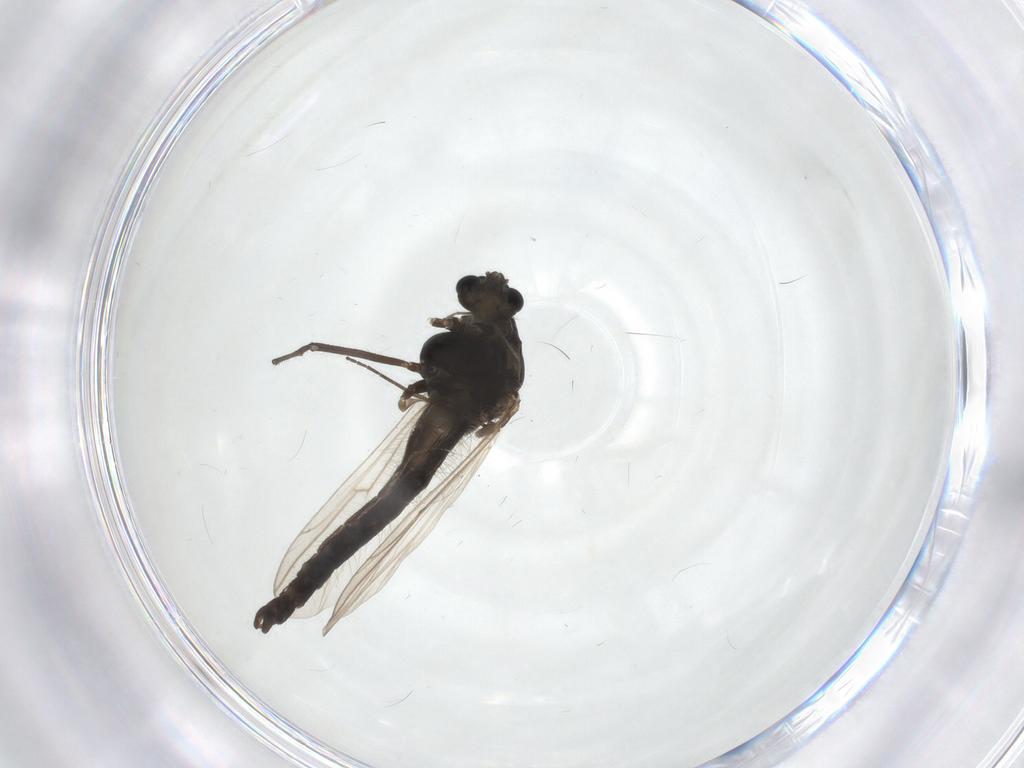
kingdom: Animalia
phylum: Arthropoda
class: Insecta
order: Diptera
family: Chironomidae
